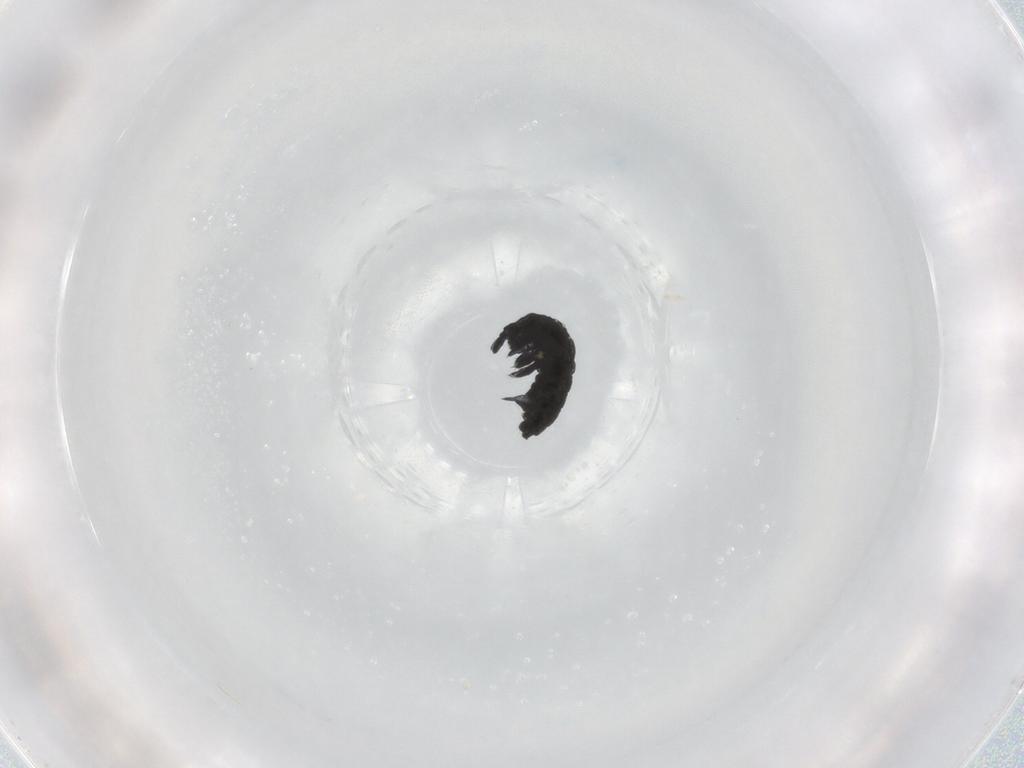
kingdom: Animalia
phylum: Arthropoda
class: Collembola
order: Poduromorpha
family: Hypogastruridae
